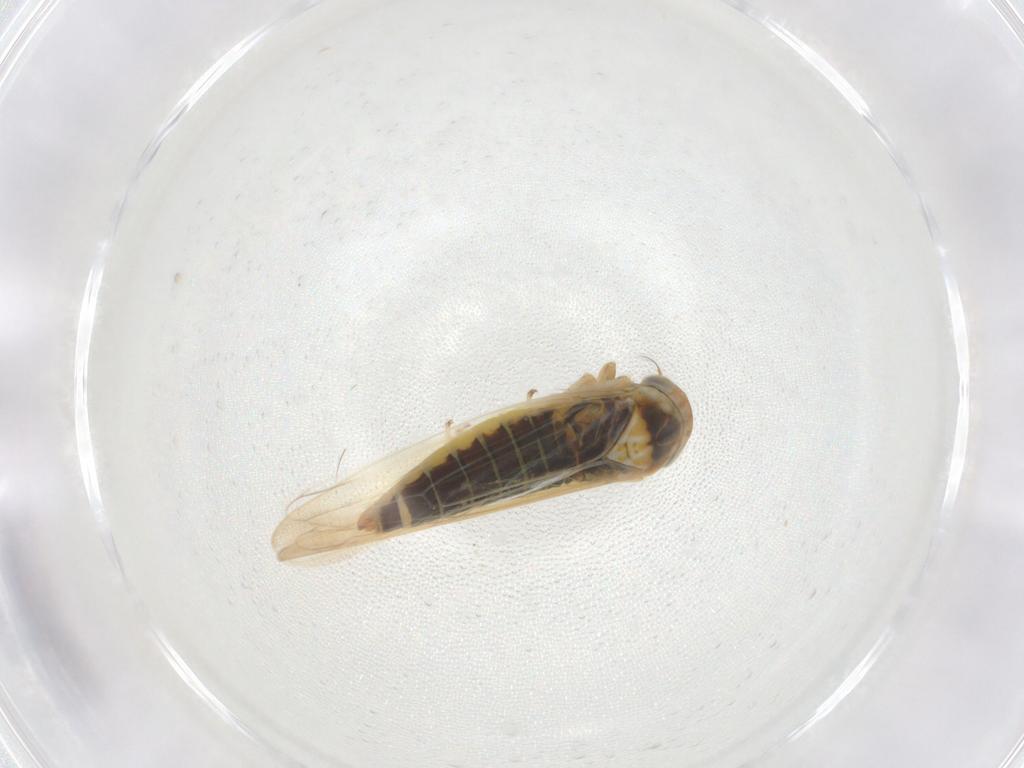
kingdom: Animalia
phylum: Arthropoda
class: Insecta
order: Hemiptera
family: Cicadellidae
